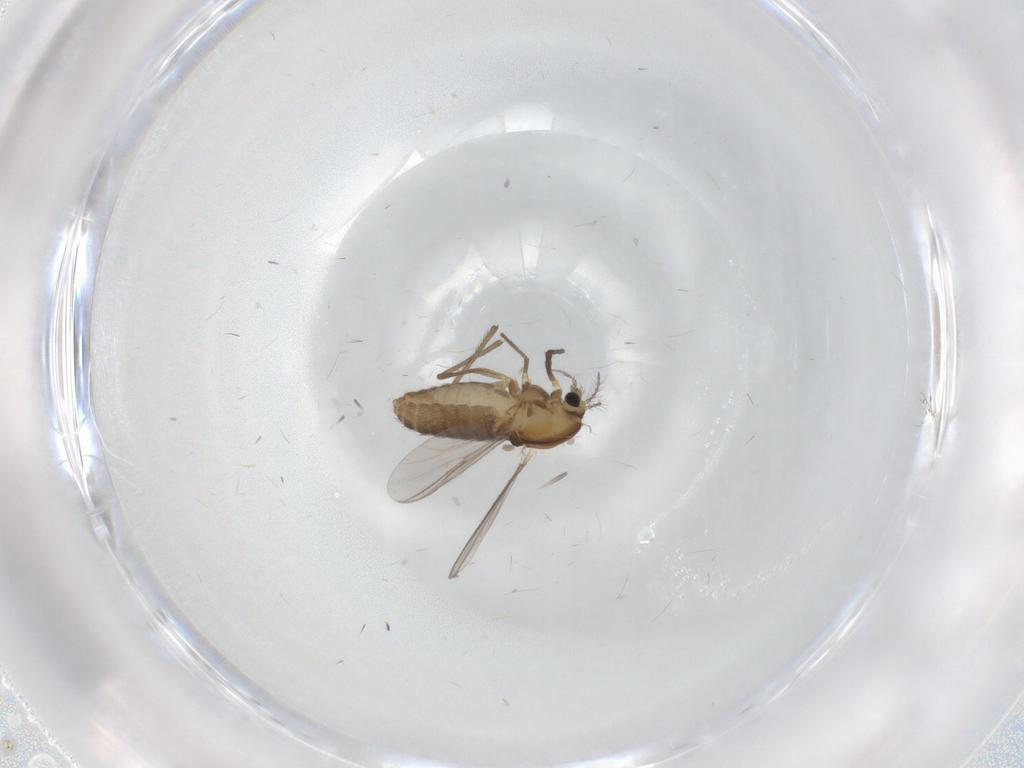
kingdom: Animalia
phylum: Arthropoda
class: Insecta
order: Diptera
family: Chironomidae
